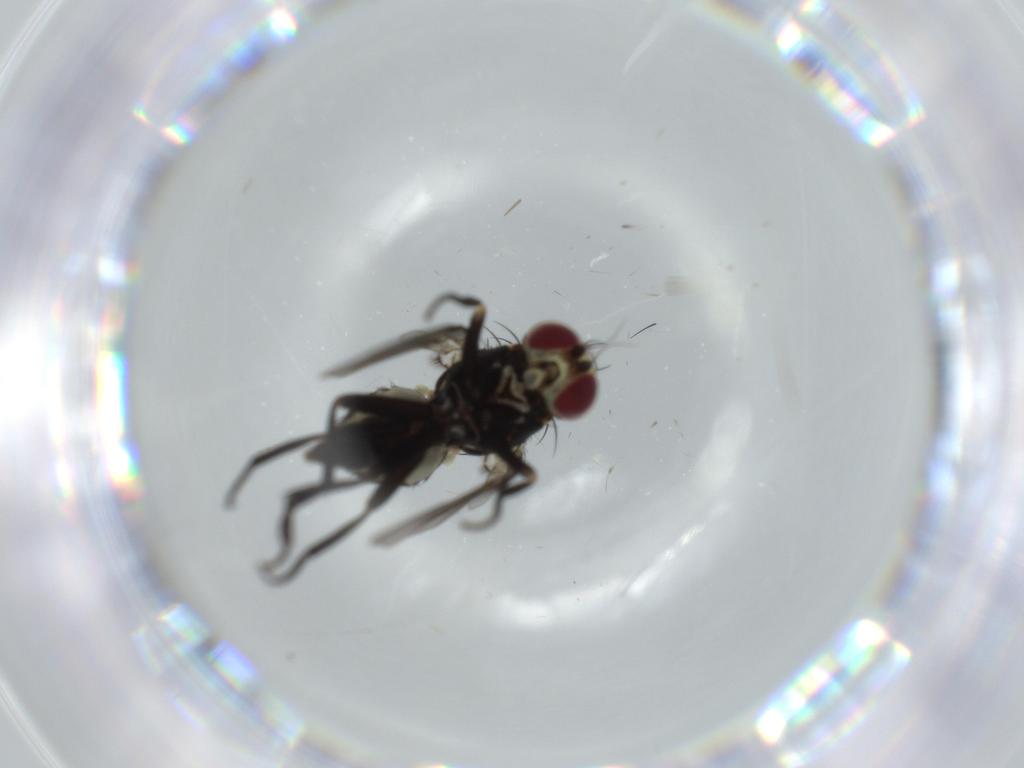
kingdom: Animalia
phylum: Arthropoda
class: Insecta
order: Diptera
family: Agromyzidae
